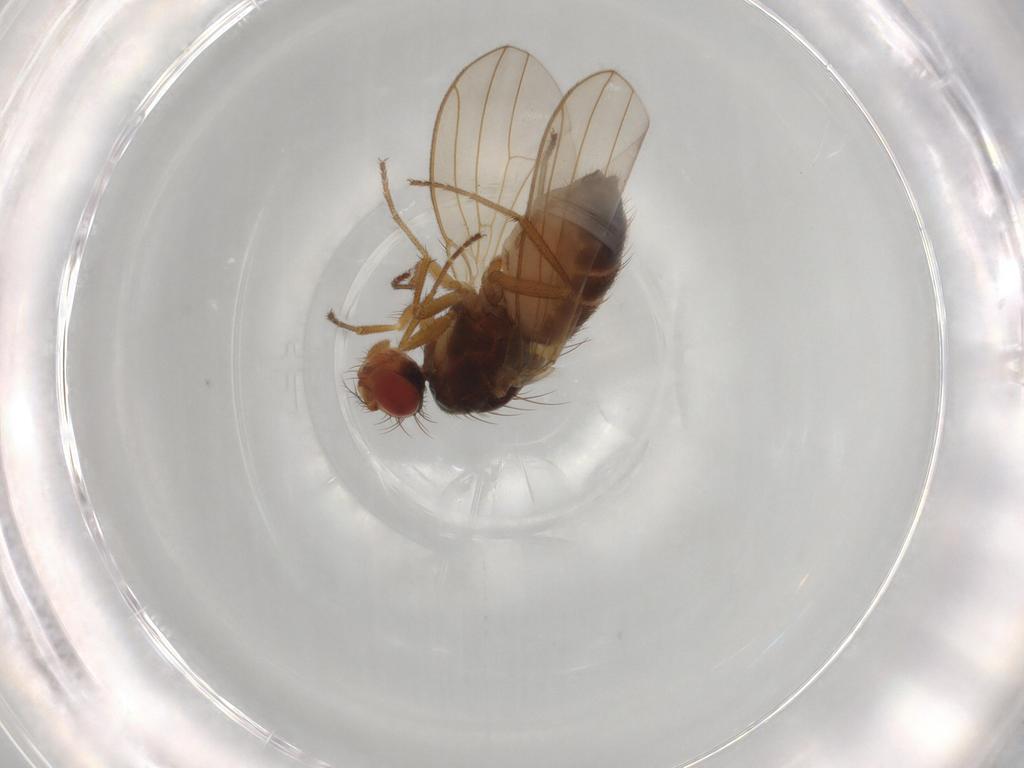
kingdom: Animalia
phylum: Arthropoda
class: Insecta
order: Diptera
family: Drosophilidae
